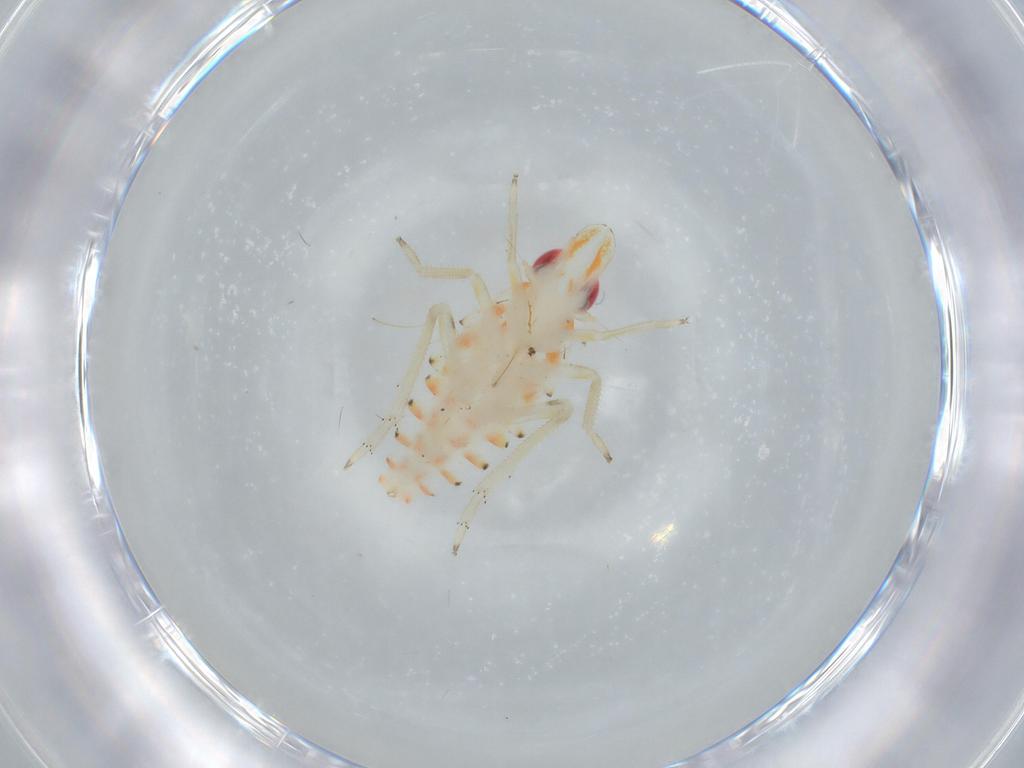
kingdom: Animalia
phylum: Arthropoda
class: Insecta
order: Hemiptera
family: Tropiduchidae
